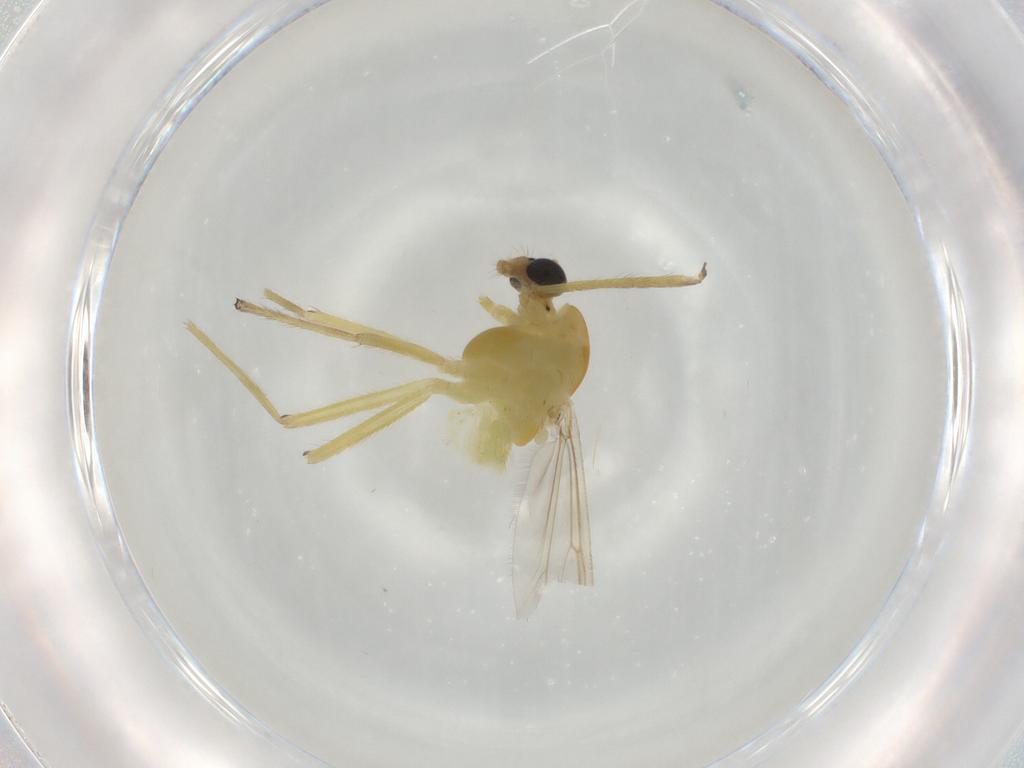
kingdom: Animalia
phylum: Arthropoda
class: Insecta
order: Diptera
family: Chironomidae
